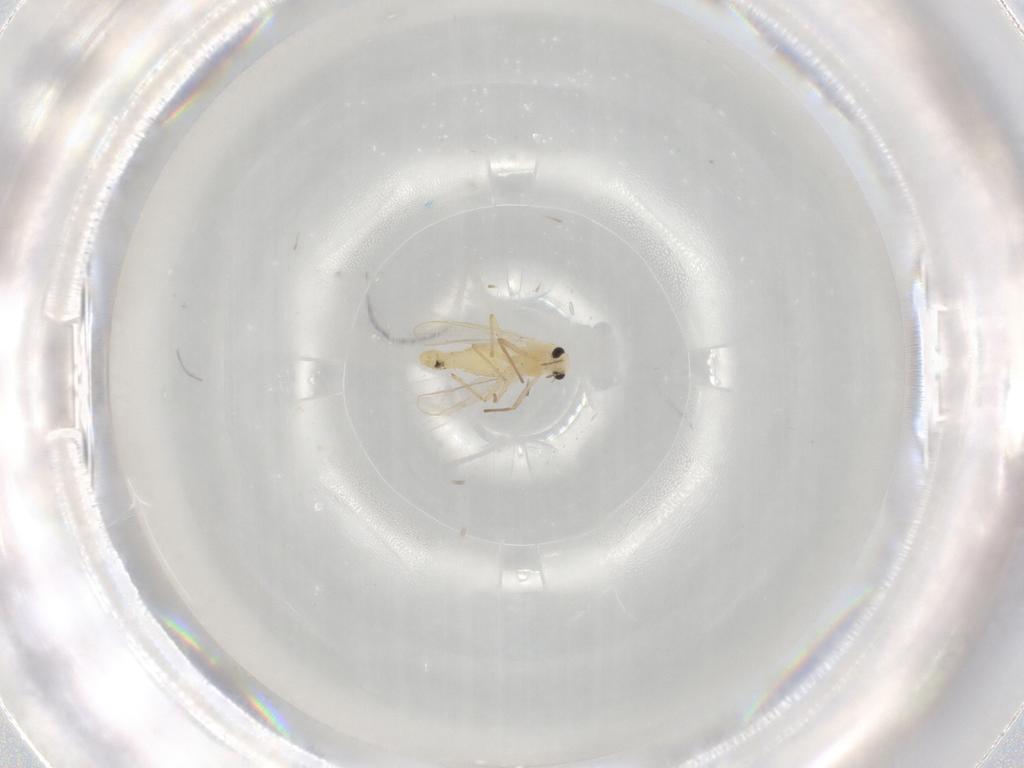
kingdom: Animalia
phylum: Arthropoda
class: Insecta
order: Diptera
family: Chironomidae
